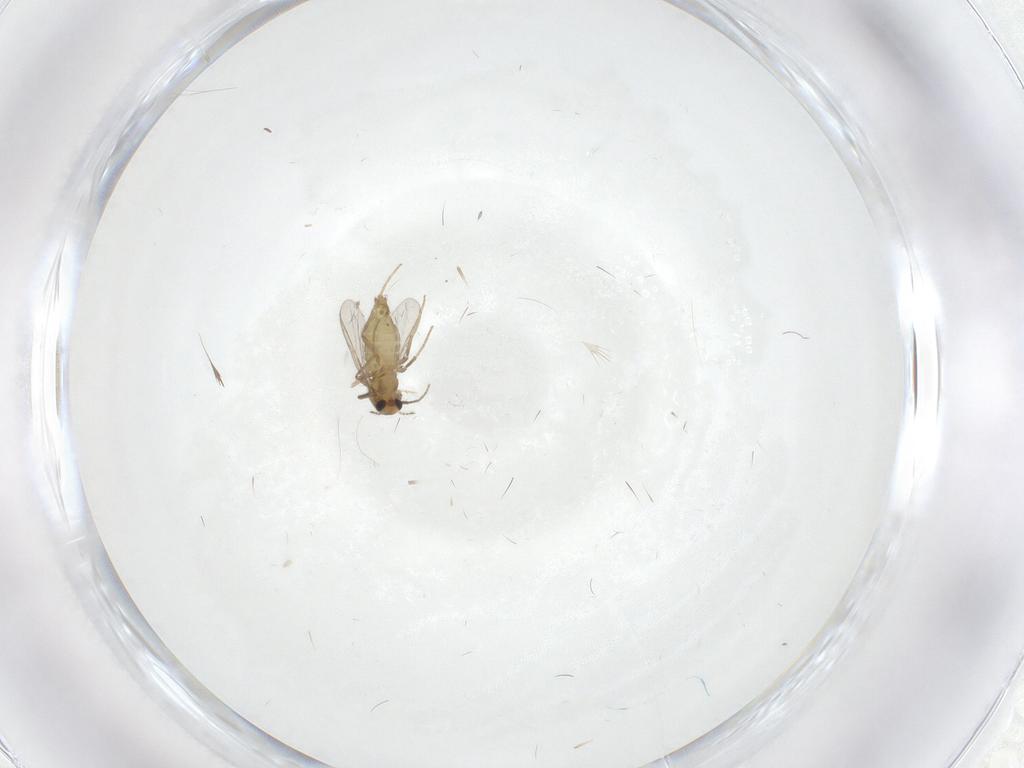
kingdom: Animalia
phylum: Arthropoda
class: Insecta
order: Diptera
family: Chironomidae
